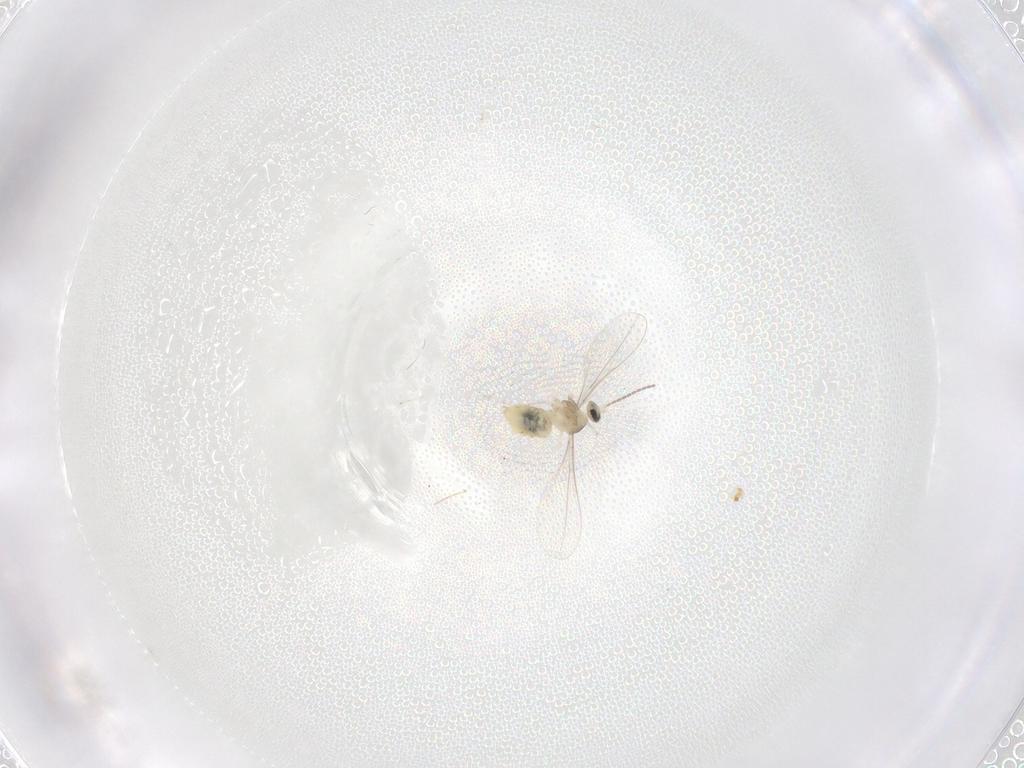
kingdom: Animalia
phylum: Arthropoda
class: Insecta
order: Diptera
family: Cecidomyiidae
